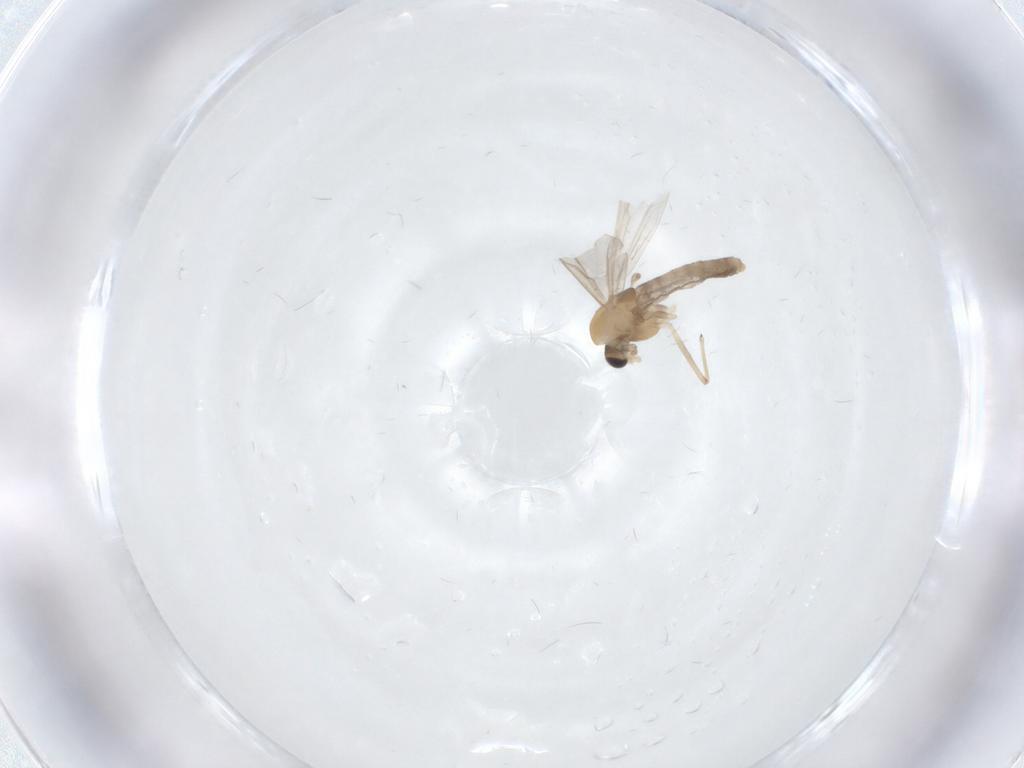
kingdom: Animalia
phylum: Arthropoda
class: Insecta
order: Diptera
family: Chironomidae
